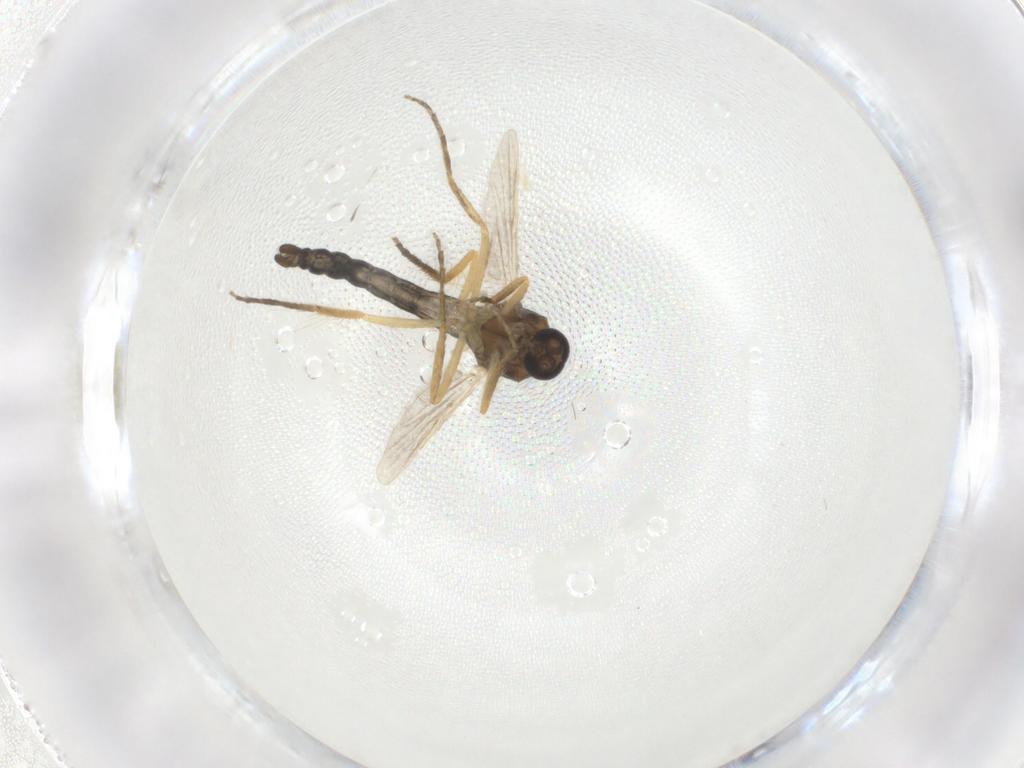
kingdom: Animalia
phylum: Arthropoda
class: Insecta
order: Diptera
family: Ceratopogonidae
